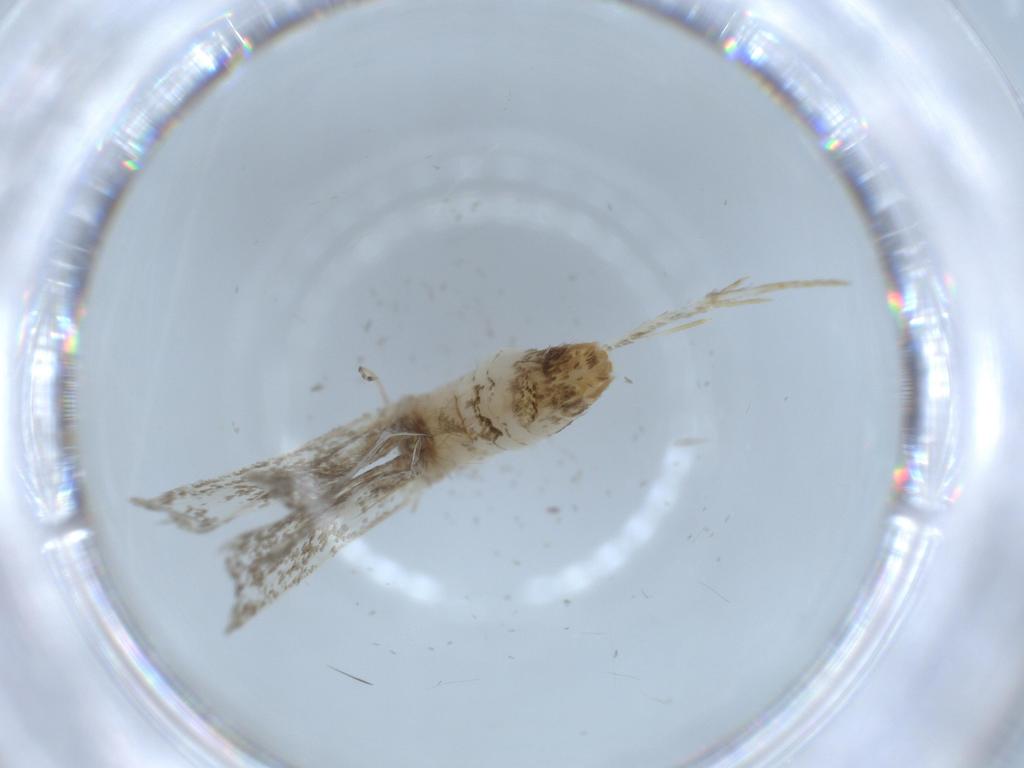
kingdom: Animalia
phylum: Arthropoda
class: Insecta
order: Lepidoptera
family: Tineidae
